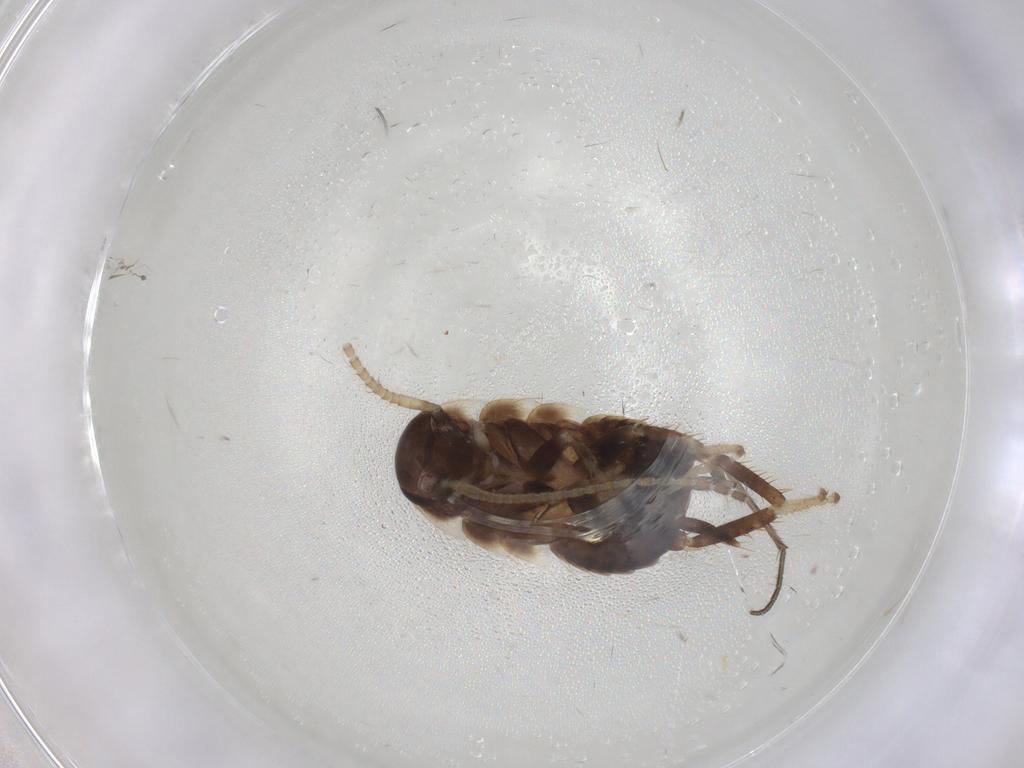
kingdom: Animalia
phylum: Arthropoda
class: Insecta
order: Blattodea
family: Blaberidae
